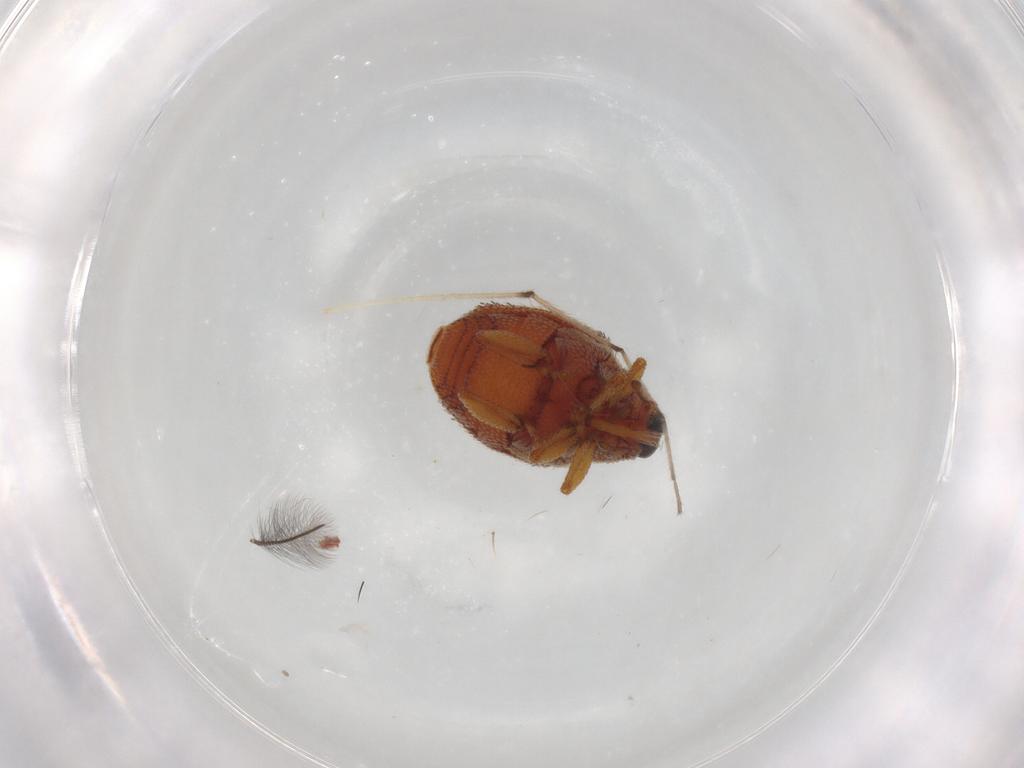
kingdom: Animalia
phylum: Arthropoda
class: Insecta
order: Coleoptera
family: Curculionidae
